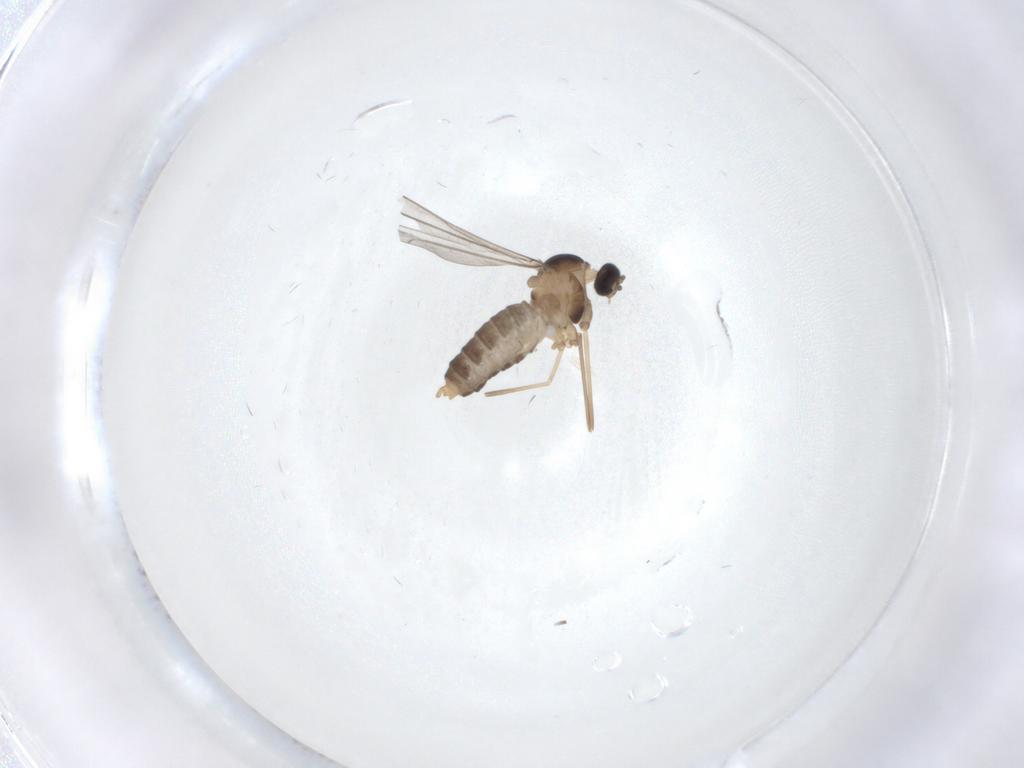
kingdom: Animalia
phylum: Arthropoda
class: Insecta
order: Diptera
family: Cecidomyiidae
